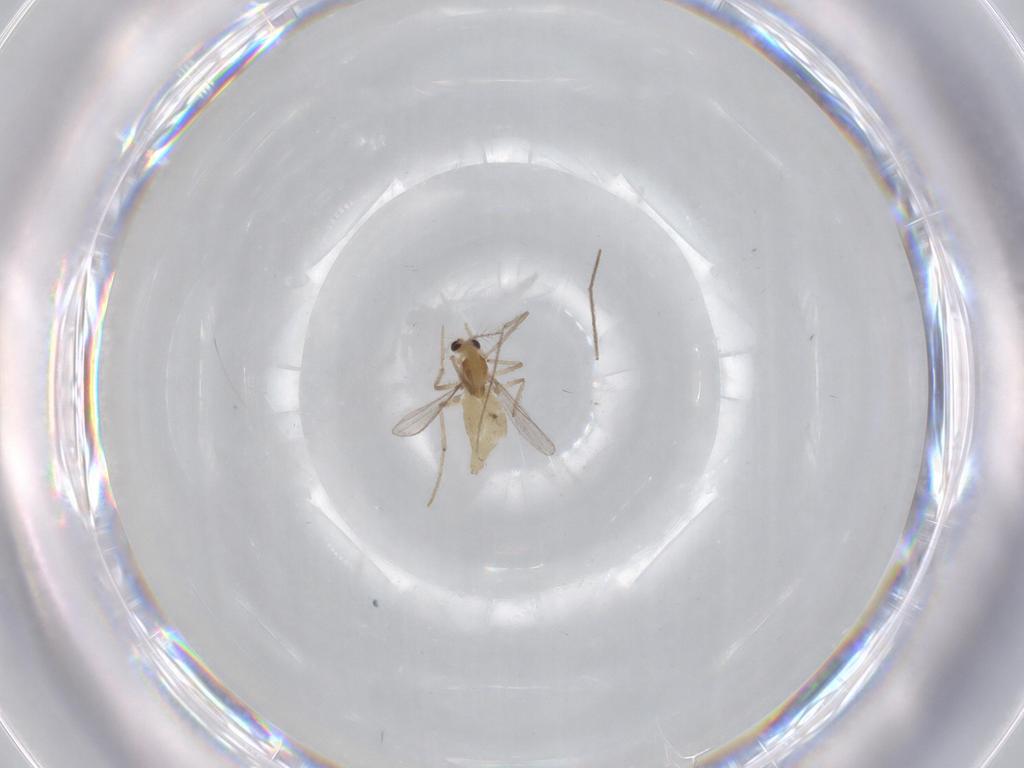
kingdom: Animalia
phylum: Arthropoda
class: Insecta
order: Diptera
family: Chironomidae
